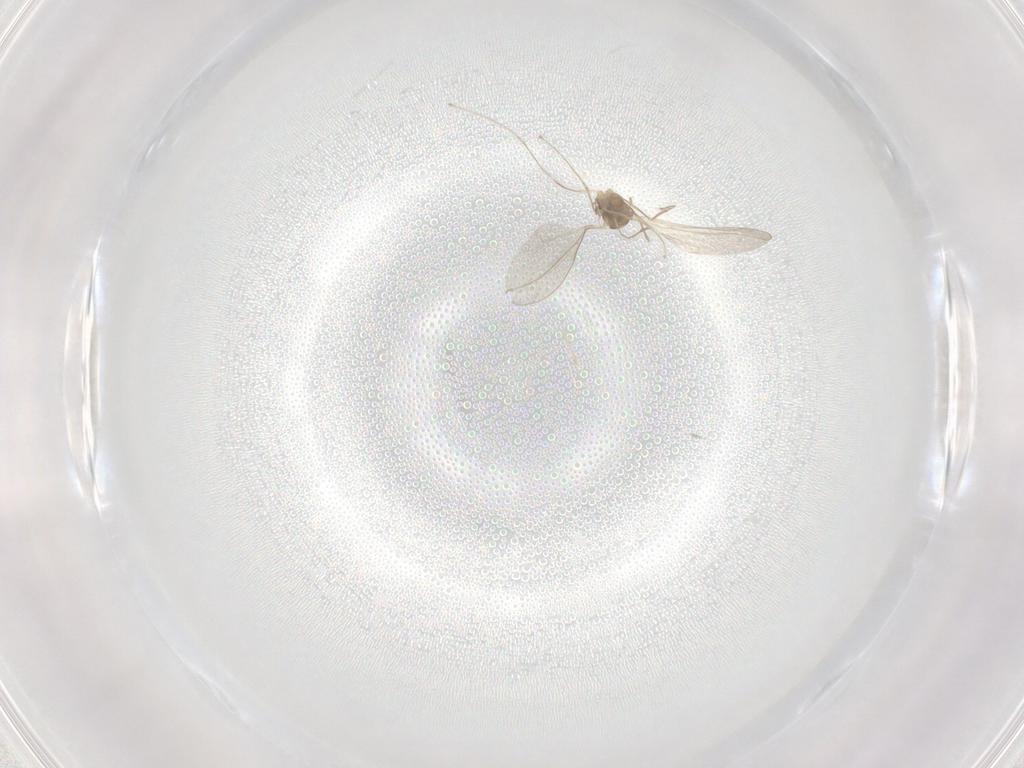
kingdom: Animalia
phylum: Arthropoda
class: Insecta
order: Diptera
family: Cecidomyiidae
